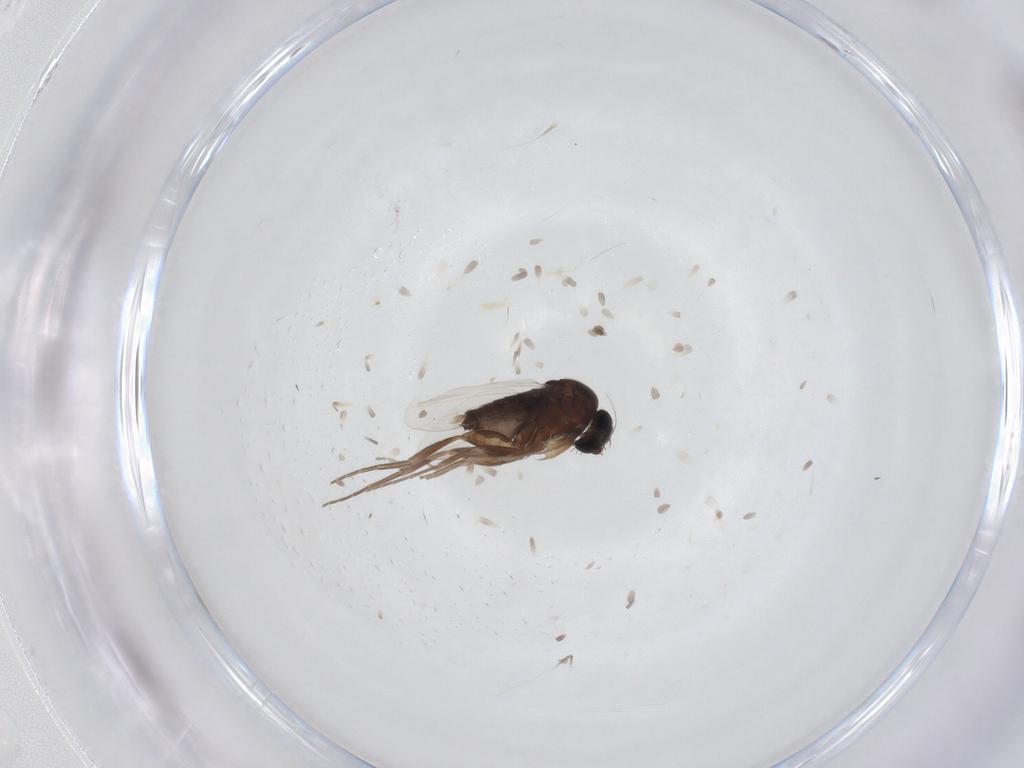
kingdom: Animalia
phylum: Arthropoda
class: Insecta
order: Diptera
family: Phoridae
